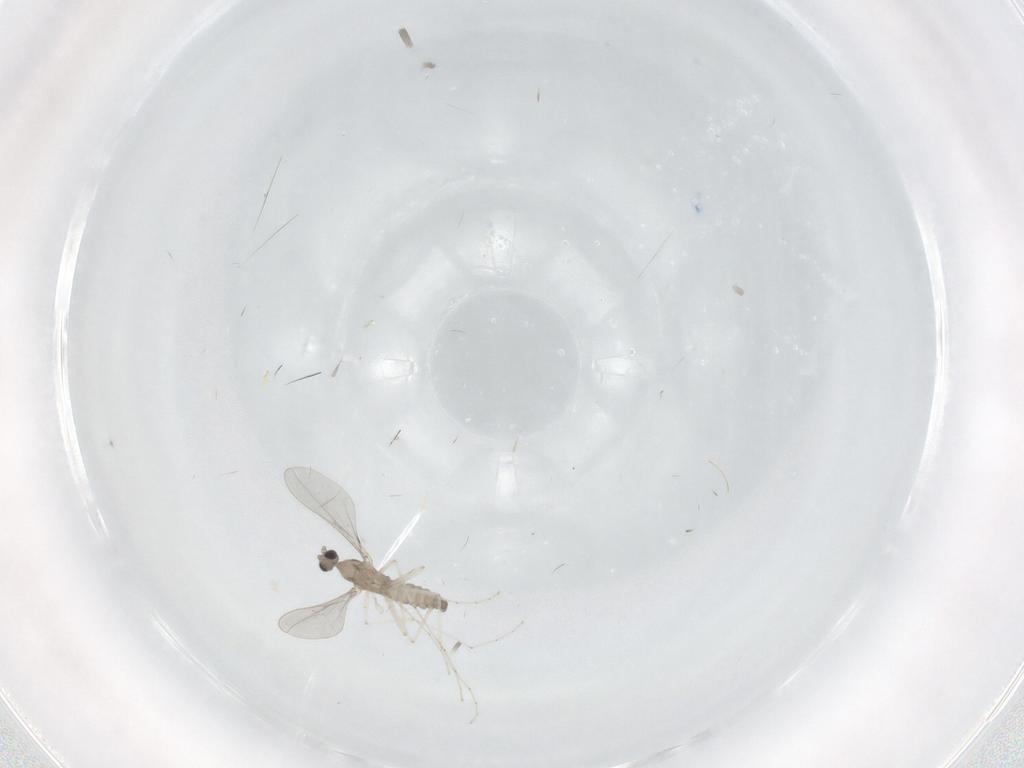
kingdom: Animalia
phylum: Arthropoda
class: Insecta
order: Diptera
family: Cecidomyiidae
